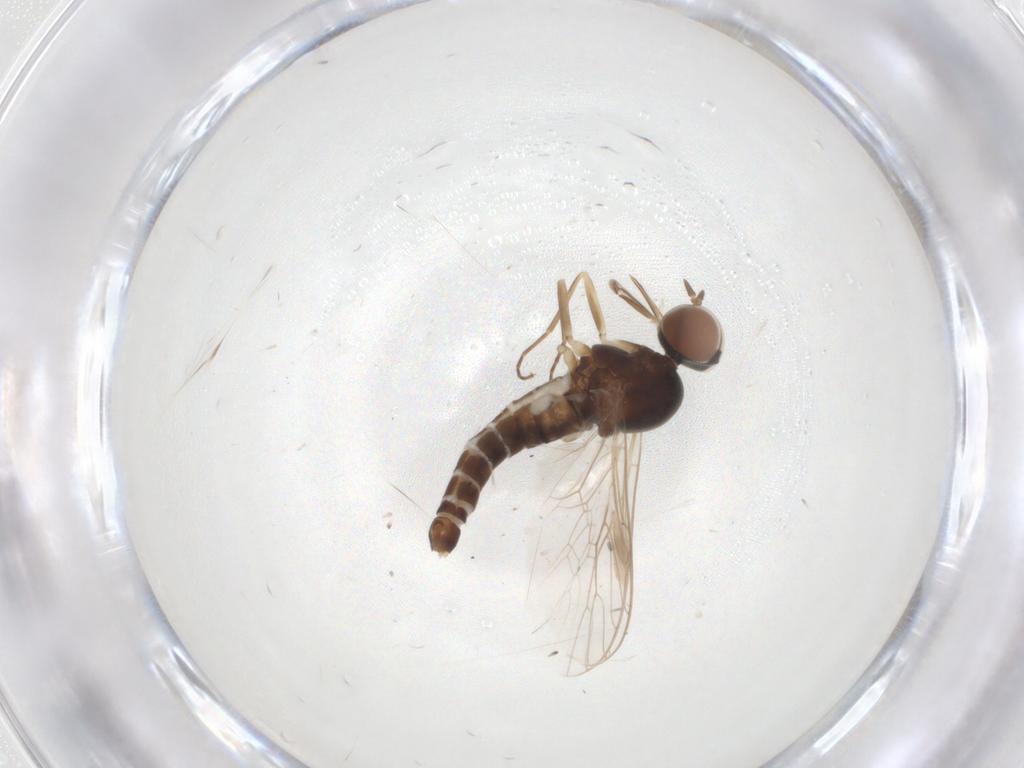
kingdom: Animalia
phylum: Arthropoda
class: Insecta
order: Diptera
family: Scenopinidae
